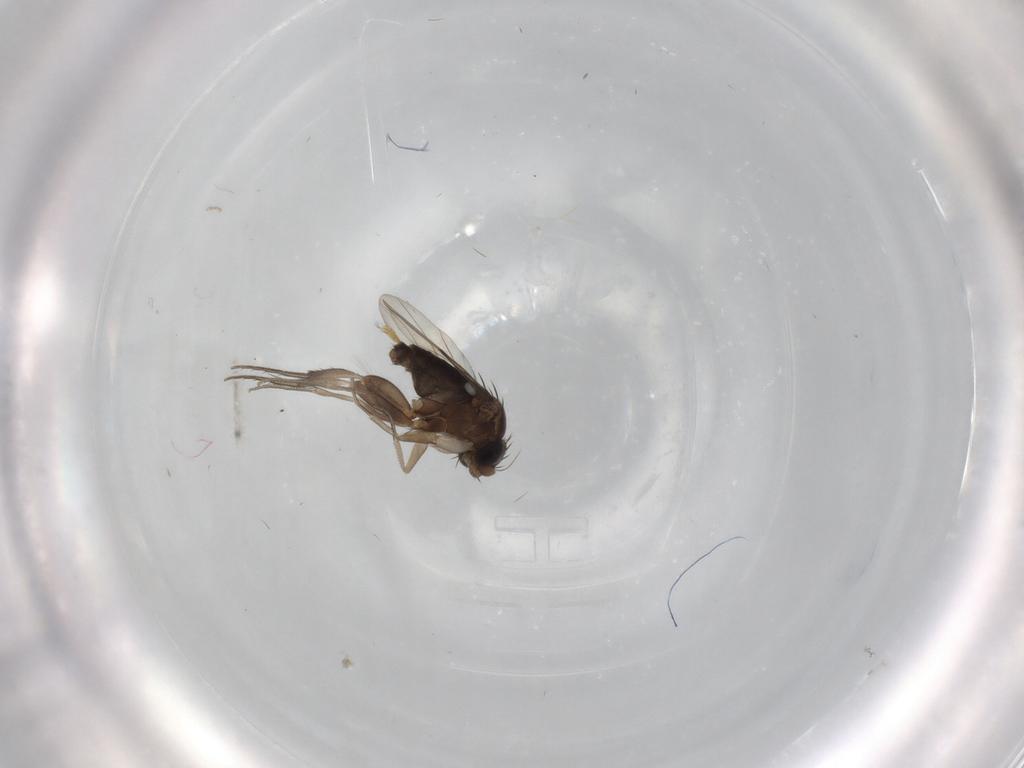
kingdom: Animalia
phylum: Arthropoda
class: Insecta
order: Diptera
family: Phoridae
